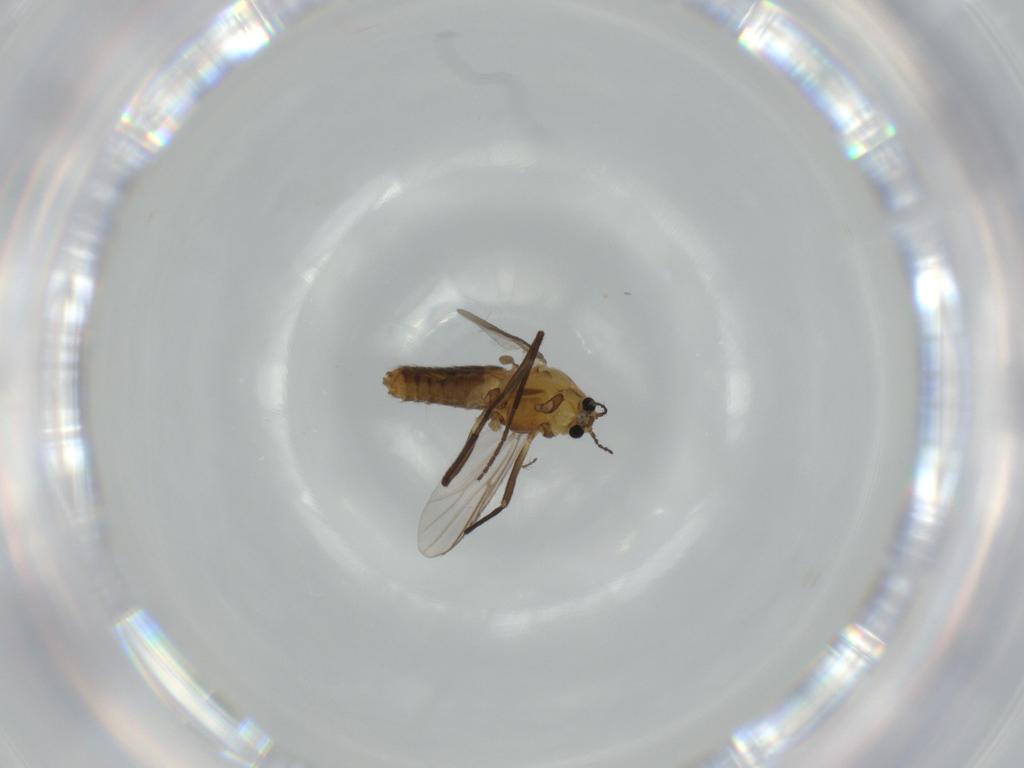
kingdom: Animalia
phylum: Arthropoda
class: Insecta
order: Diptera
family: Chironomidae
